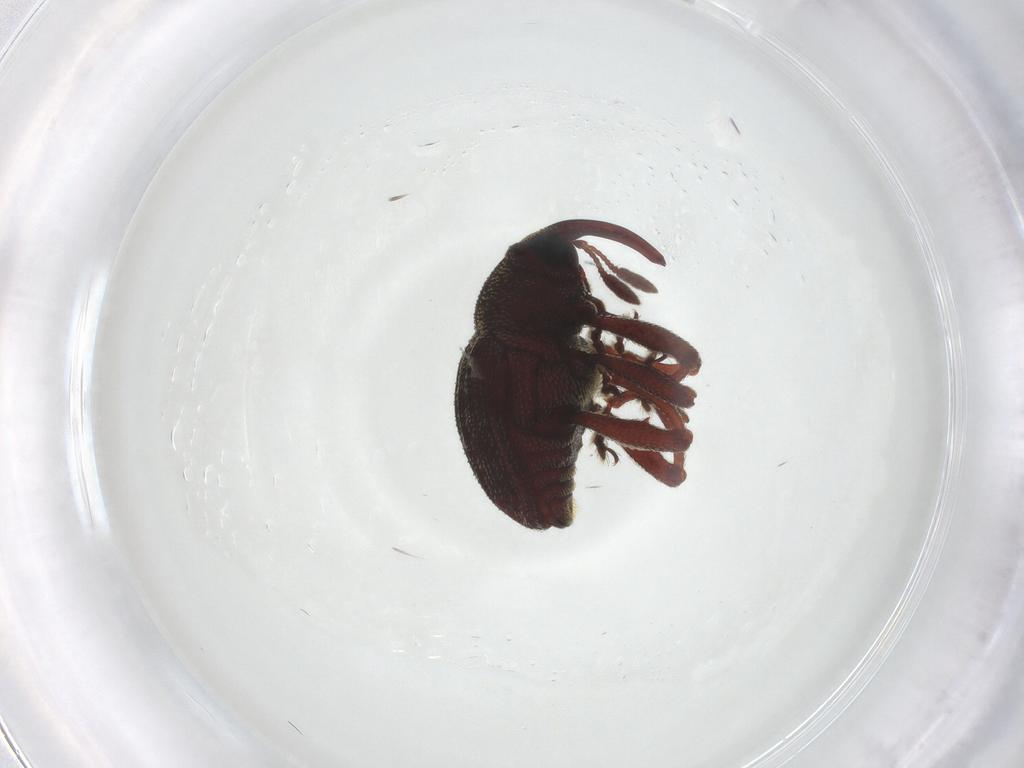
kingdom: Animalia
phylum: Arthropoda
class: Insecta
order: Coleoptera
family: Curculionidae
